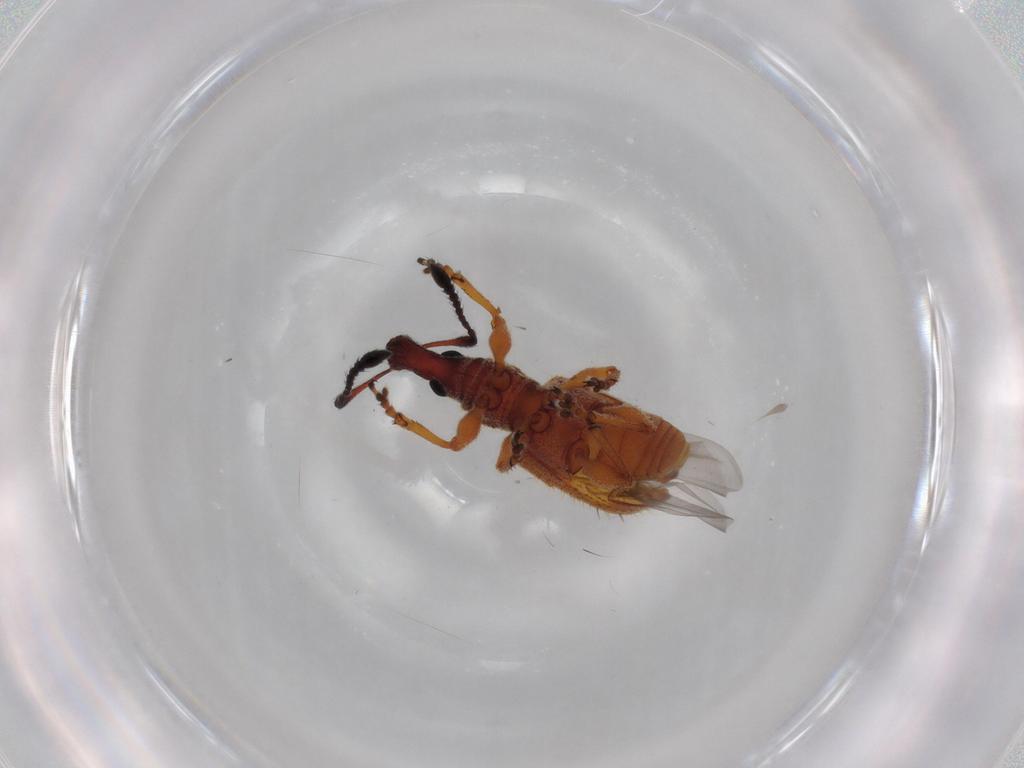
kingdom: Animalia
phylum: Arthropoda
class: Insecta
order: Coleoptera
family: Curculionidae
